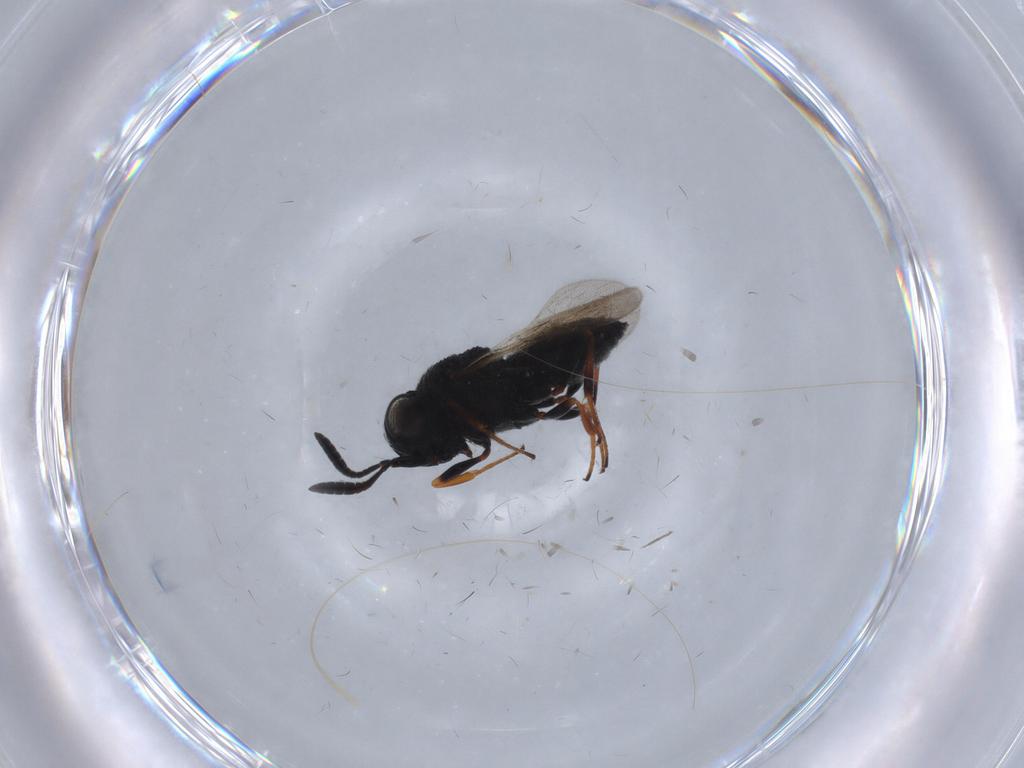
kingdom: Animalia
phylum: Arthropoda
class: Insecta
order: Hymenoptera
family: Scelionidae
